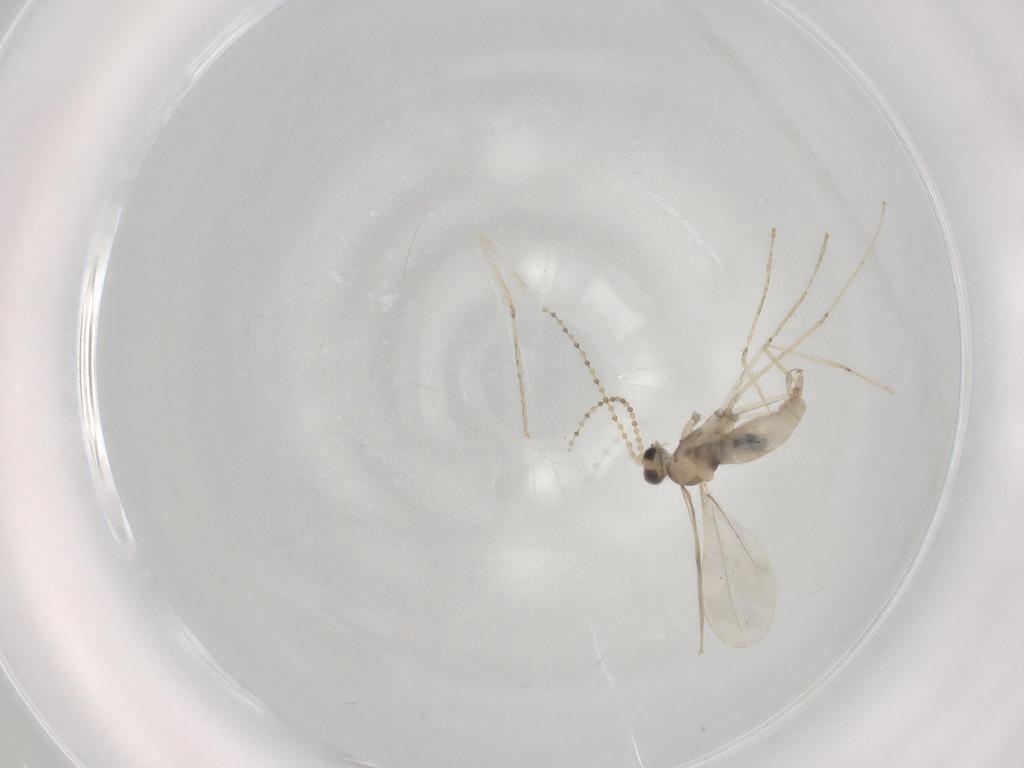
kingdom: Animalia
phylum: Arthropoda
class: Insecta
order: Diptera
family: Cecidomyiidae
